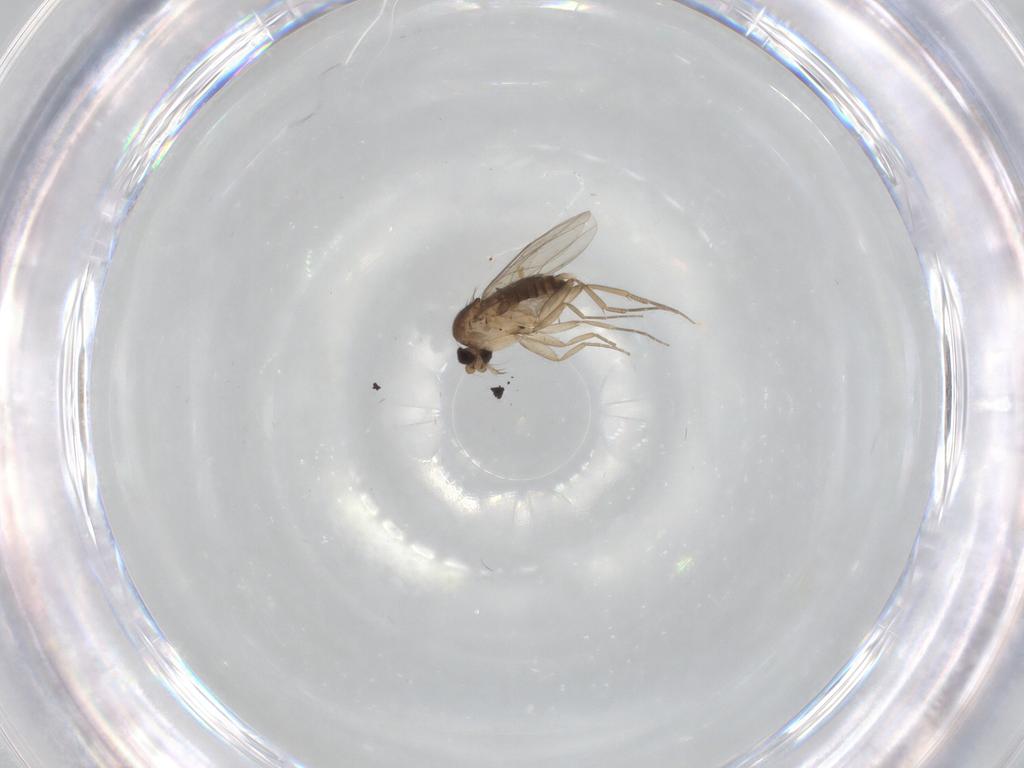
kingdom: Animalia
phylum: Arthropoda
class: Insecta
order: Diptera
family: Phoridae
